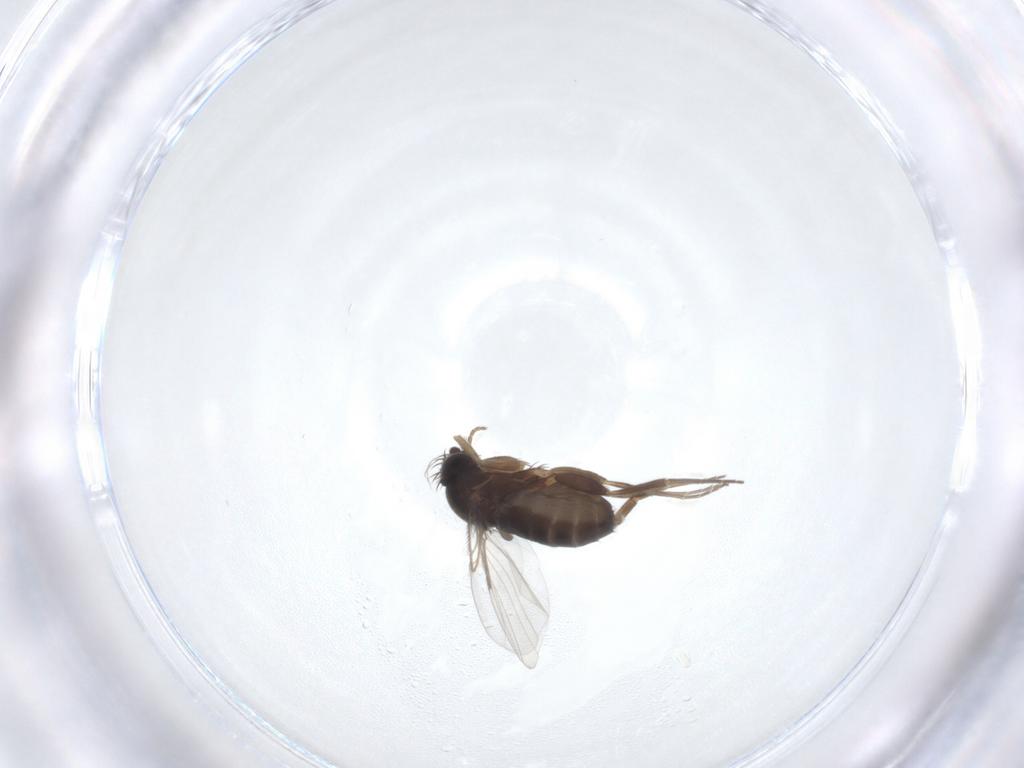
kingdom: Animalia
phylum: Arthropoda
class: Insecta
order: Diptera
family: Phoridae
